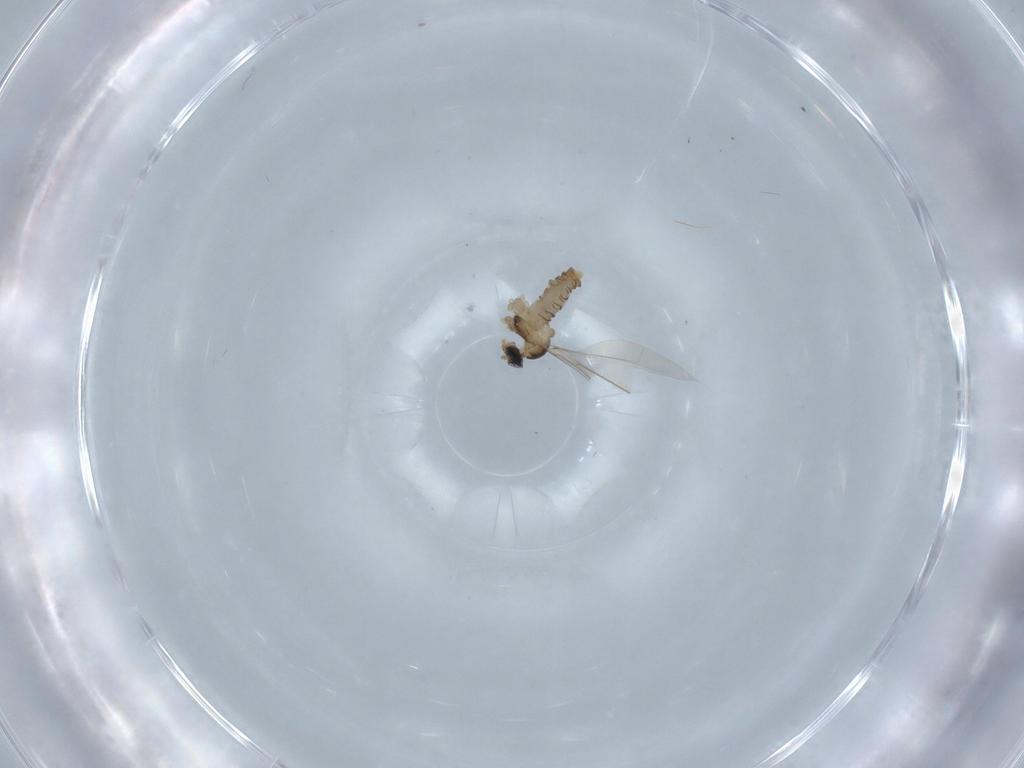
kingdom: Animalia
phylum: Arthropoda
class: Insecta
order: Diptera
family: Cecidomyiidae
